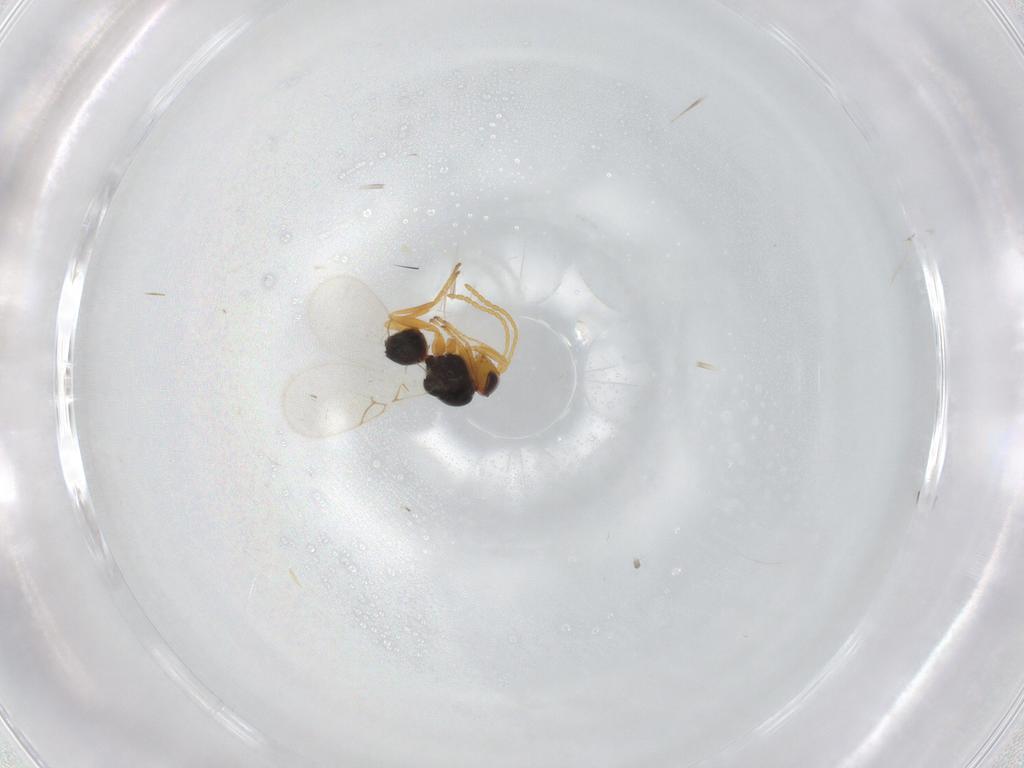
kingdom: Animalia
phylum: Arthropoda
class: Insecta
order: Hymenoptera
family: Figitidae
